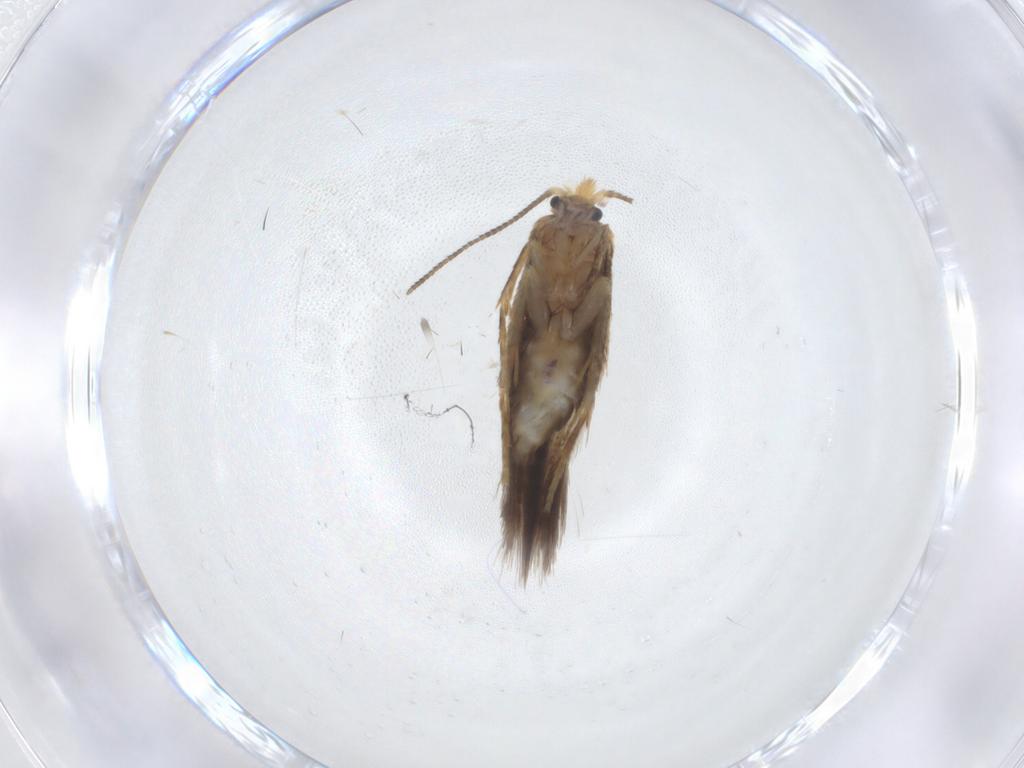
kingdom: Animalia
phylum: Arthropoda
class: Insecta
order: Lepidoptera
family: Nepticulidae
